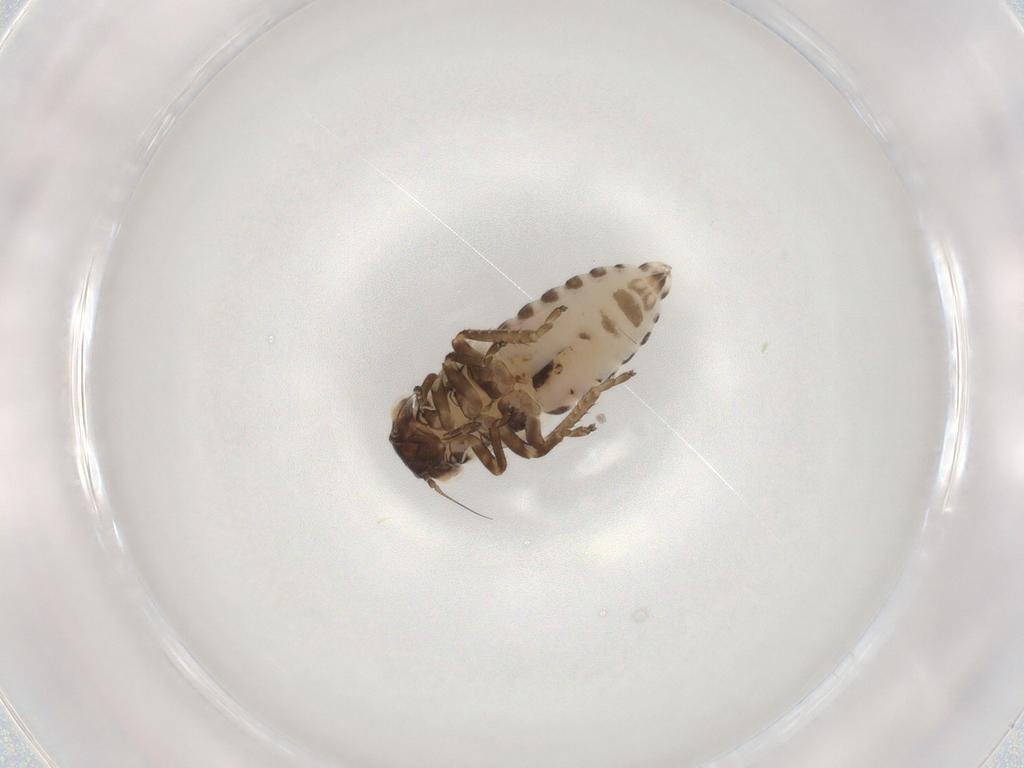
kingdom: Animalia
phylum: Arthropoda
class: Insecta
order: Hemiptera
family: Cicadellidae
